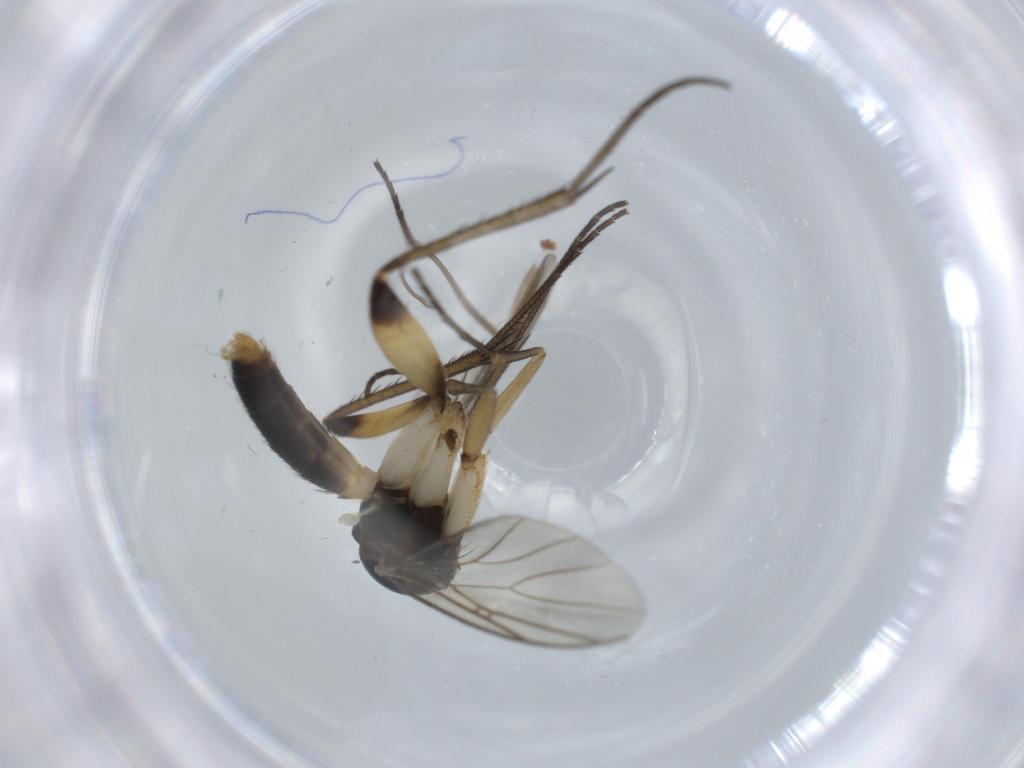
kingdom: Animalia
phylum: Arthropoda
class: Insecta
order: Diptera
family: Mycetophilidae
